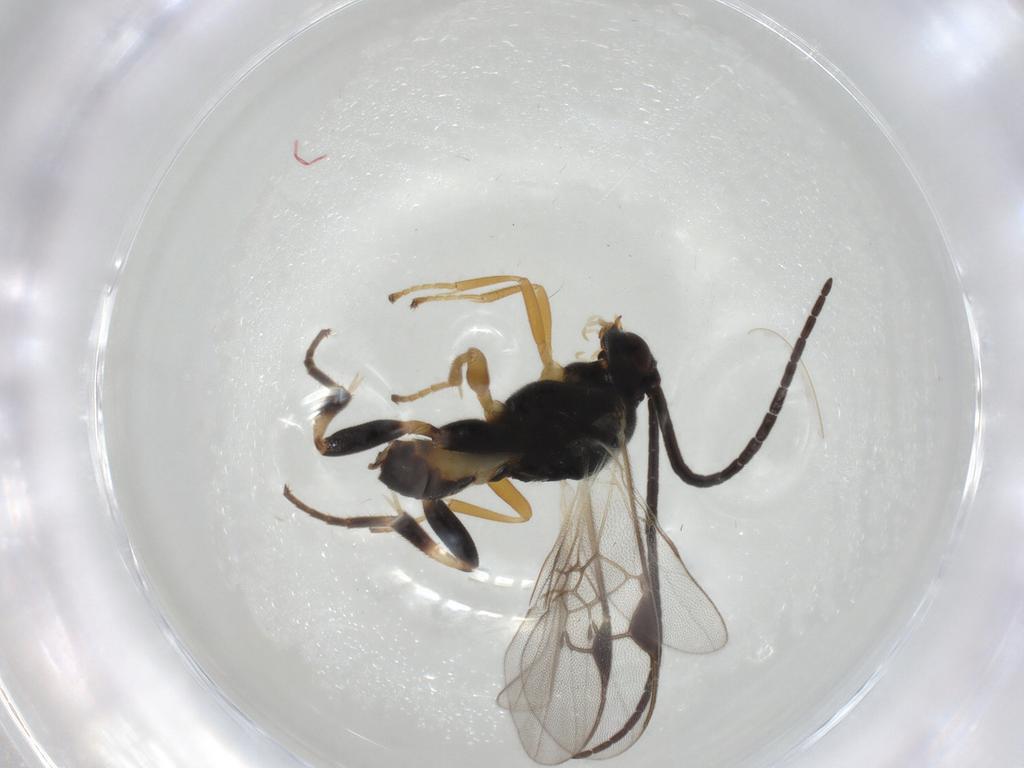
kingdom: Animalia
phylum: Arthropoda
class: Insecta
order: Hymenoptera
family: Braconidae
